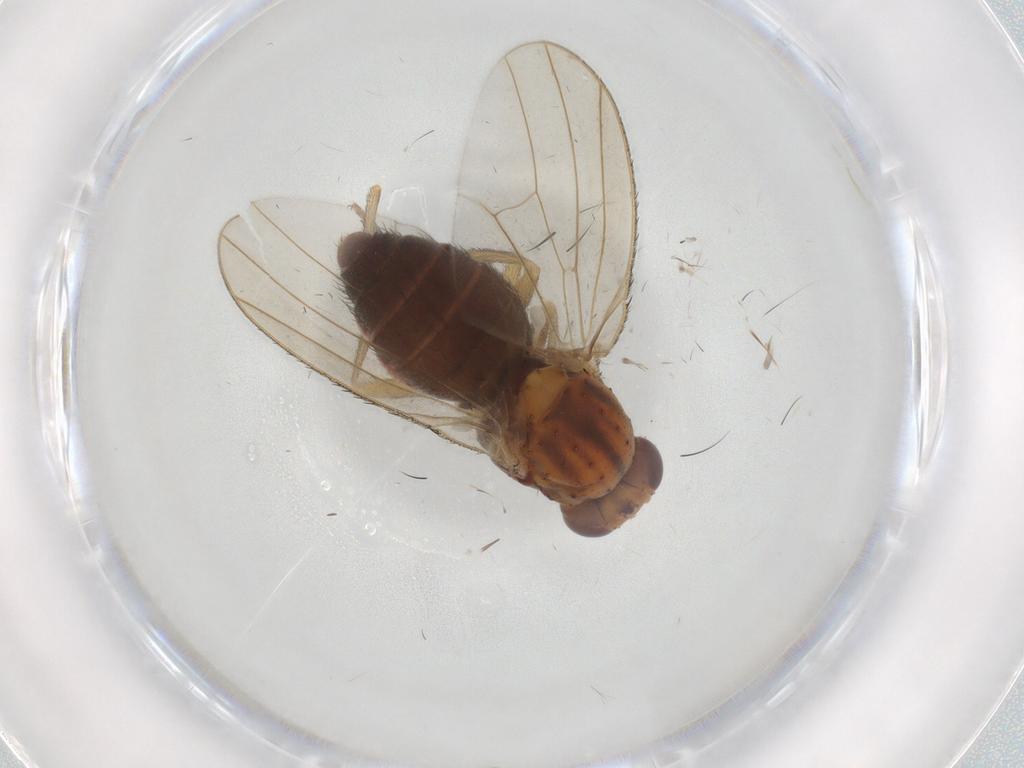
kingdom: Animalia
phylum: Arthropoda
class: Insecta
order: Diptera
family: Heleomyzidae
